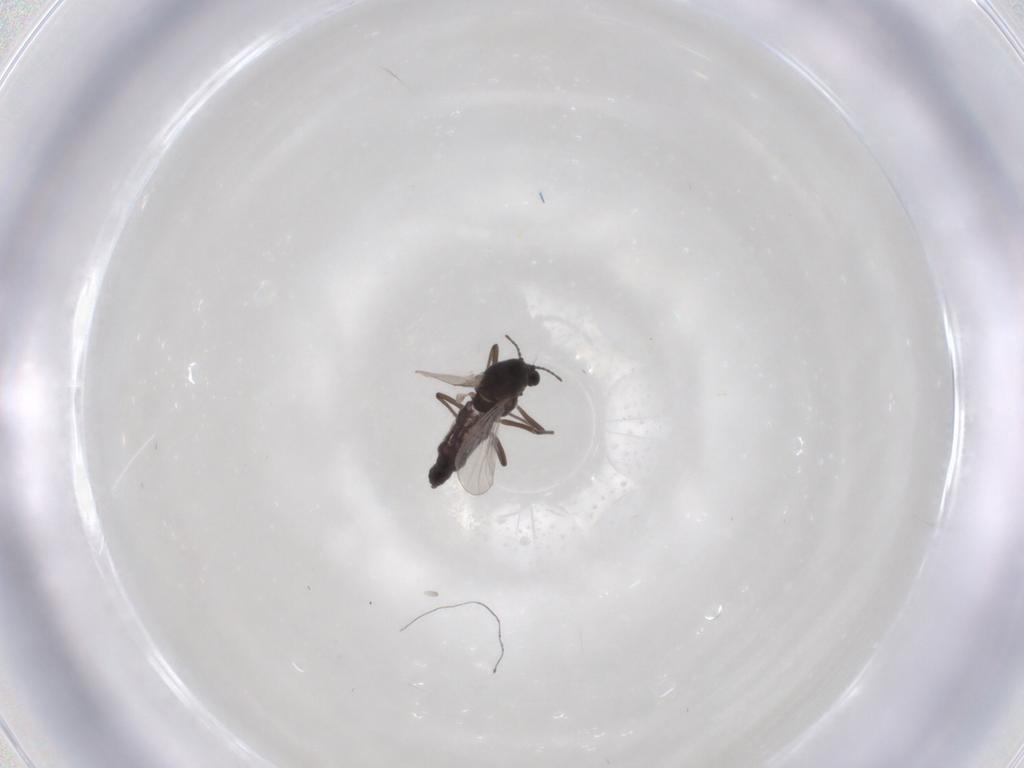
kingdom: Animalia
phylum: Arthropoda
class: Insecta
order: Diptera
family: Chironomidae
